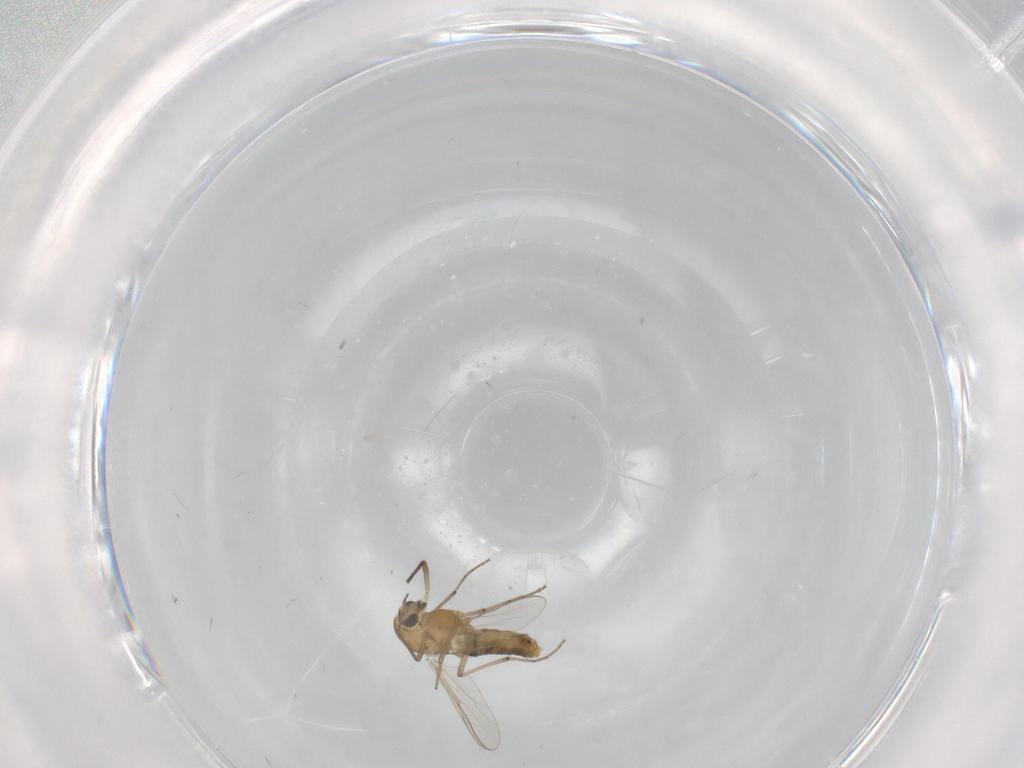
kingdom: Animalia
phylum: Arthropoda
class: Insecta
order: Diptera
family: Chironomidae
